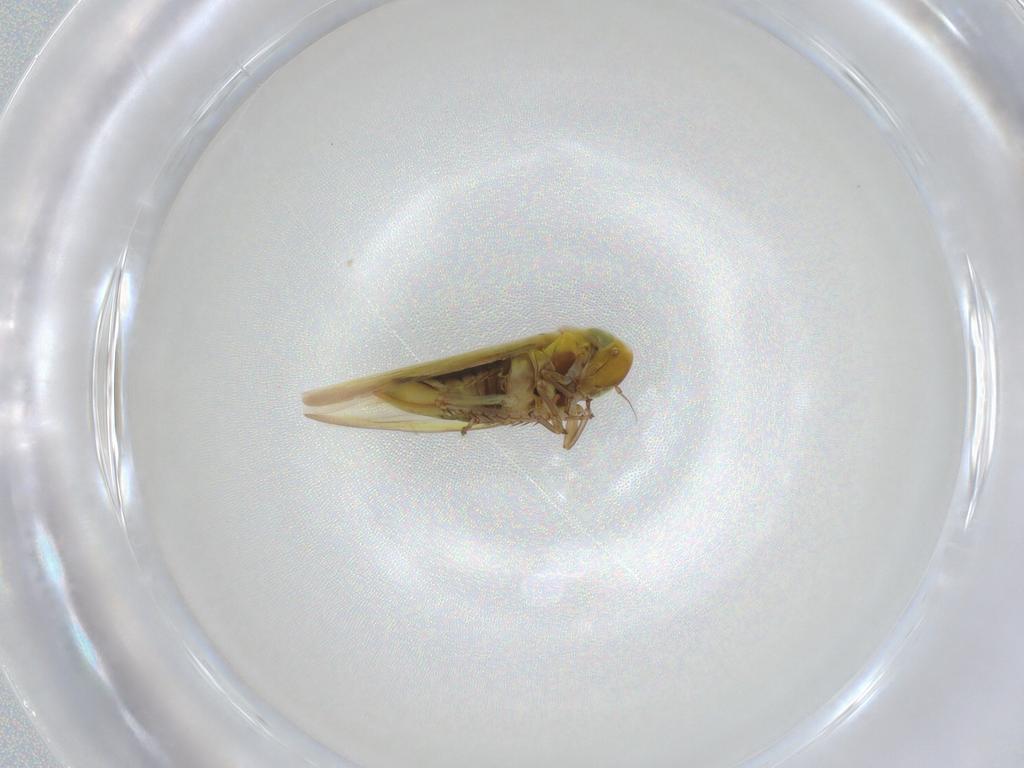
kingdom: Animalia
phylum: Arthropoda
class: Insecta
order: Hemiptera
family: Cicadellidae
